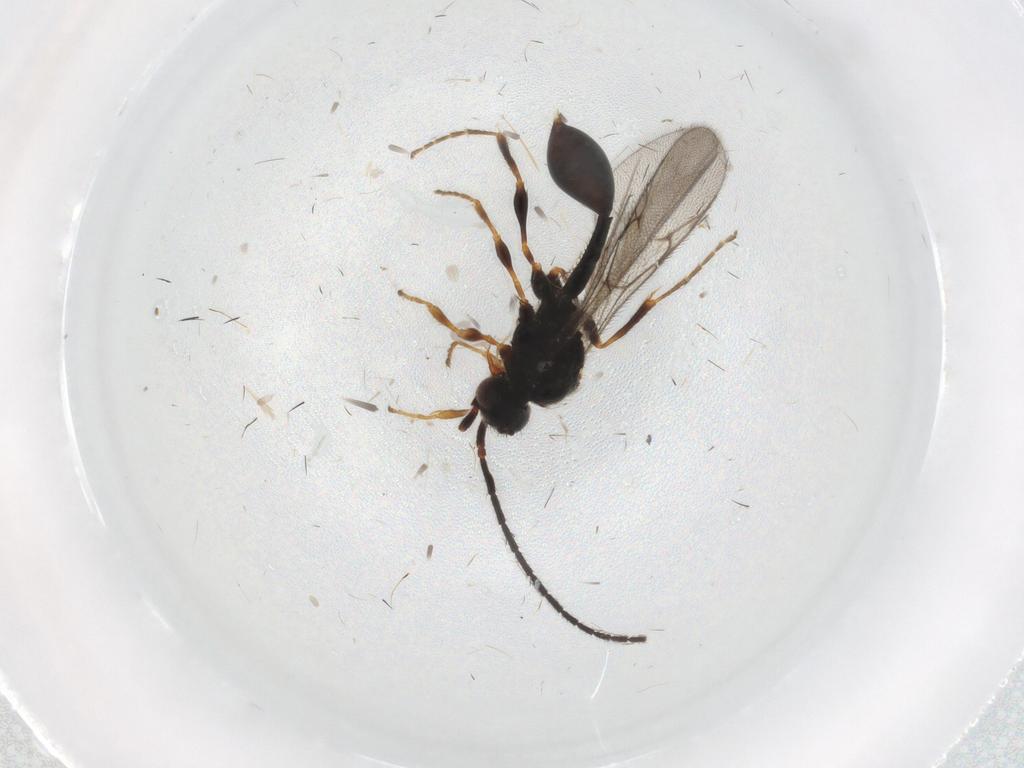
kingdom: Animalia
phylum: Arthropoda
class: Insecta
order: Hymenoptera
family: Diapriidae
